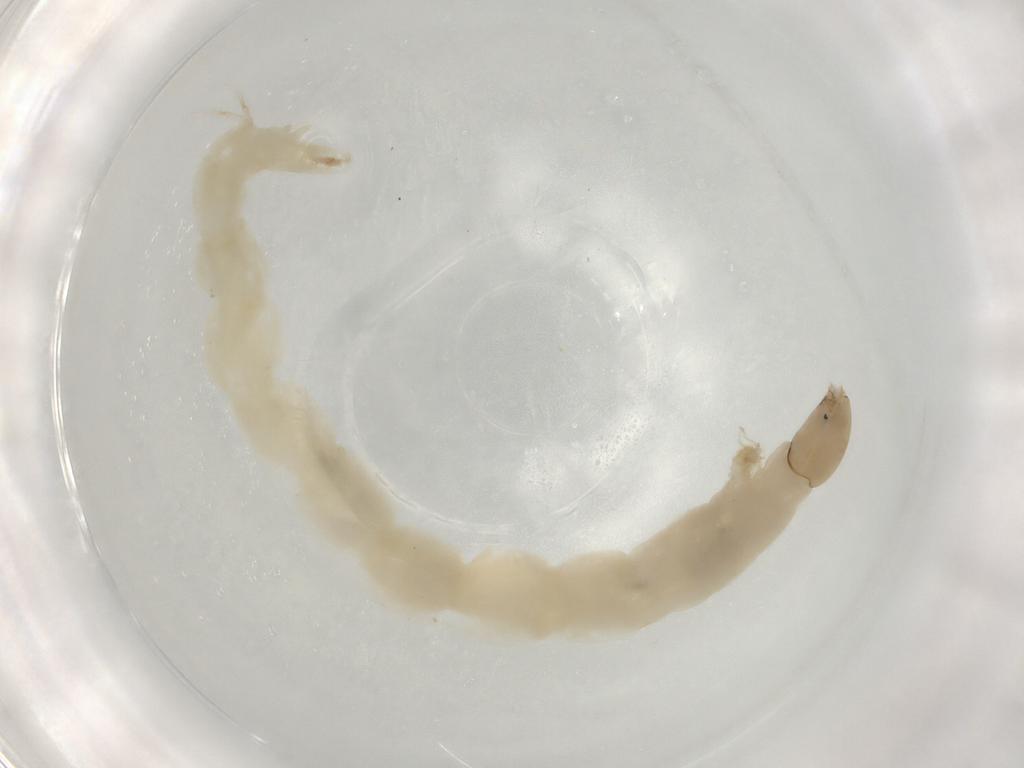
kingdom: Animalia
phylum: Arthropoda
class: Insecta
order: Diptera
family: Chironomidae
